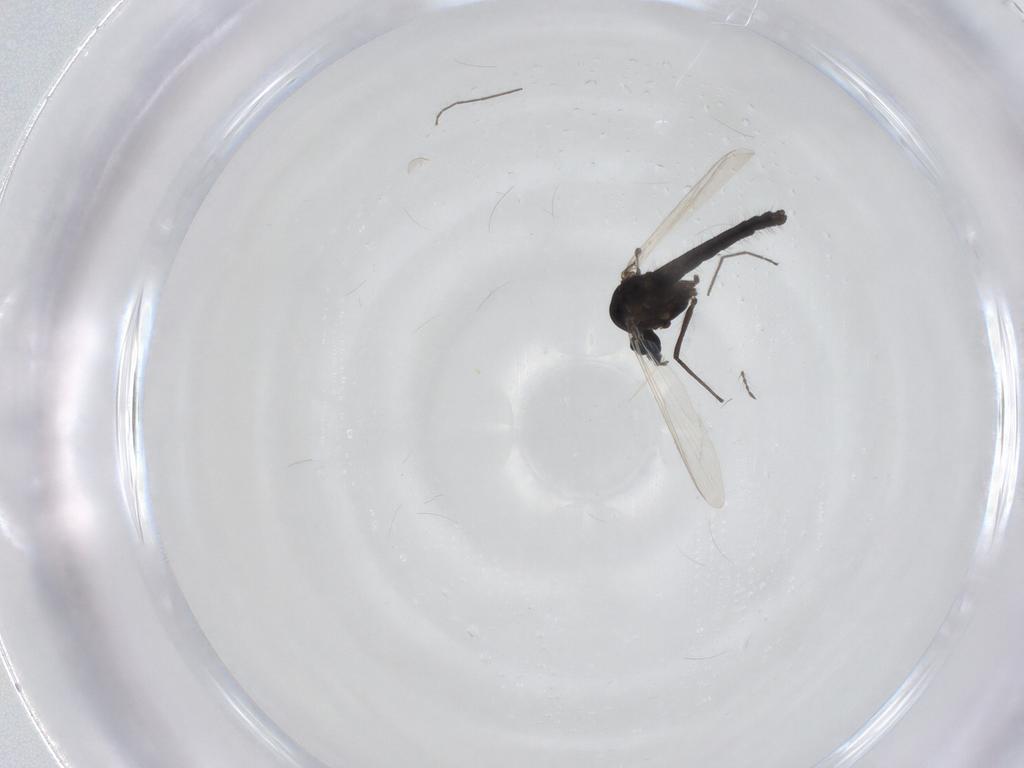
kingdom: Animalia
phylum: Arthropoda
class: Insecta
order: Diptera
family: Chironomidae
